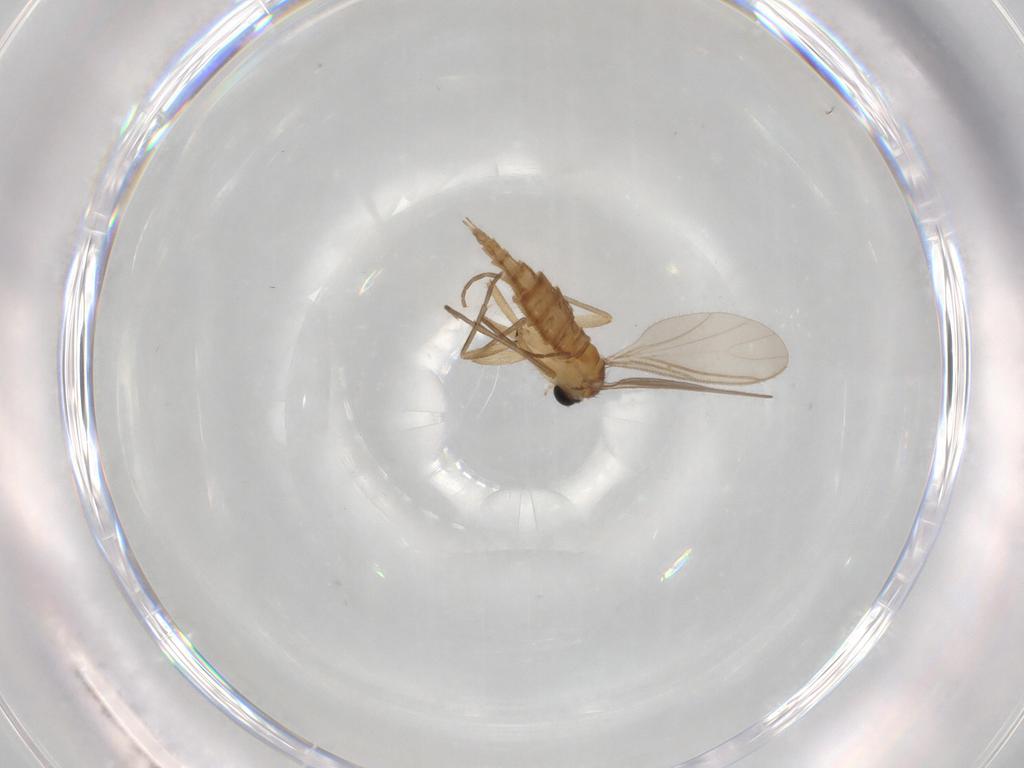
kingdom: Animalia
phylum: Arthropoda
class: Insecta
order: Diptera
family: Sciaridae
